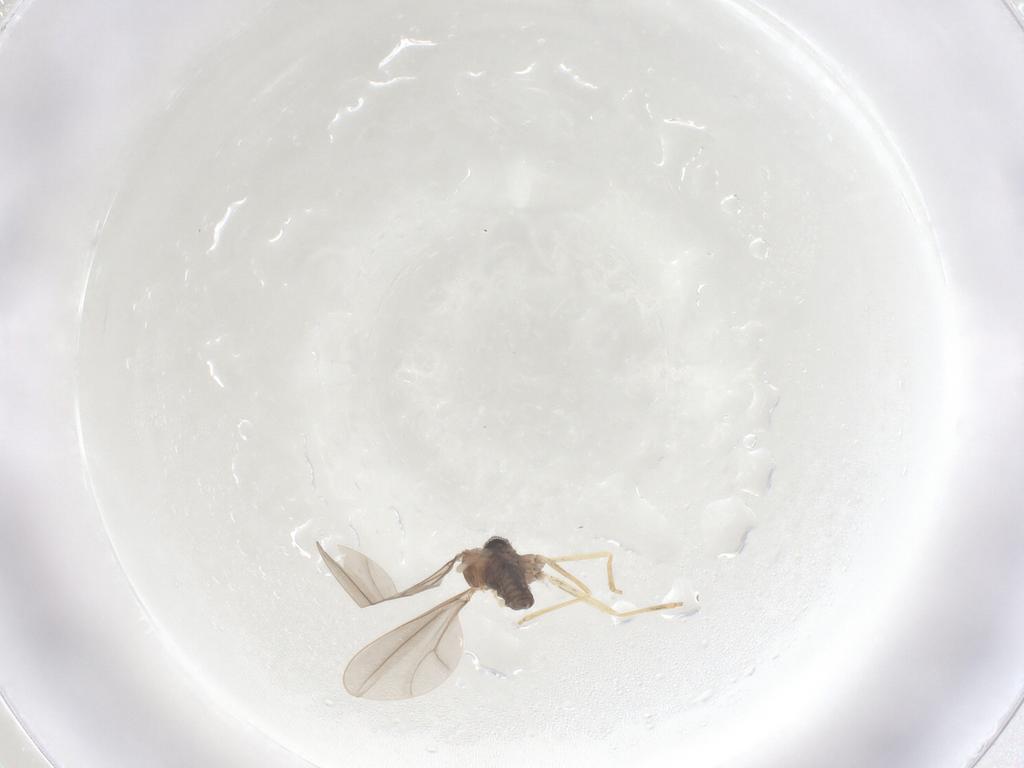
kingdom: Animalia
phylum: Arthropoda
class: Insecta
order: Diptera
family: Cecidomyiidae
